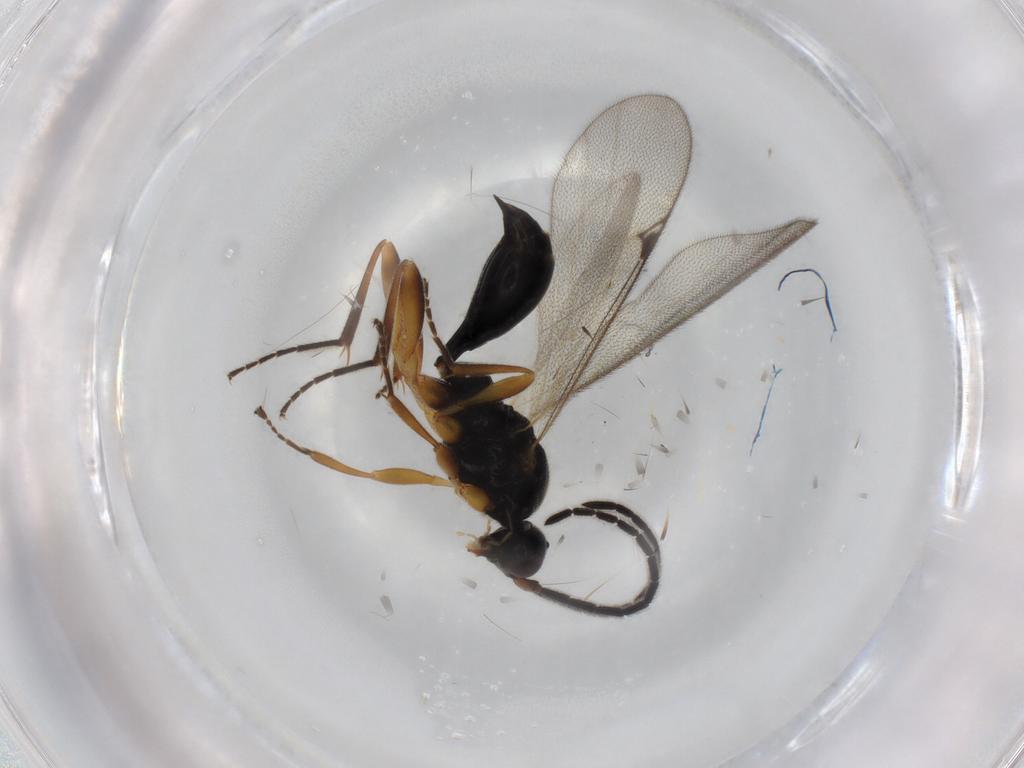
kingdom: Animalia
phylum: Arthropoda
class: Insecta
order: Hymenoptera
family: Proctotrupidae
